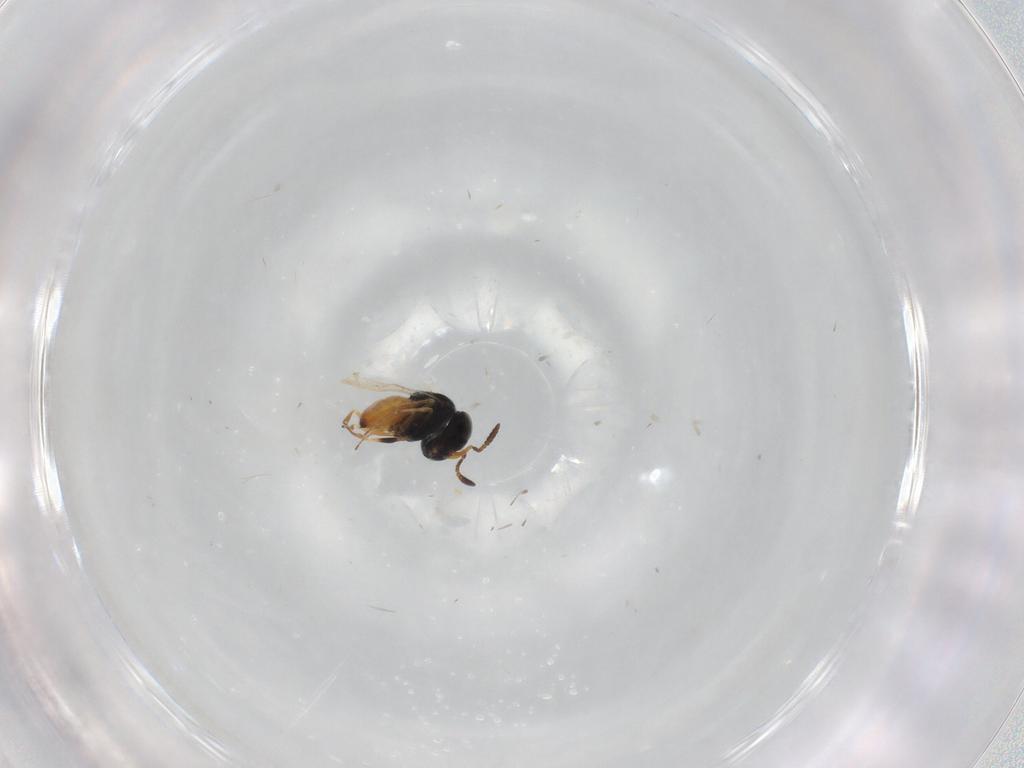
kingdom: Animalia
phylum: Arthropoda
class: Insecta
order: Hymenoptera
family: Scelionidae
